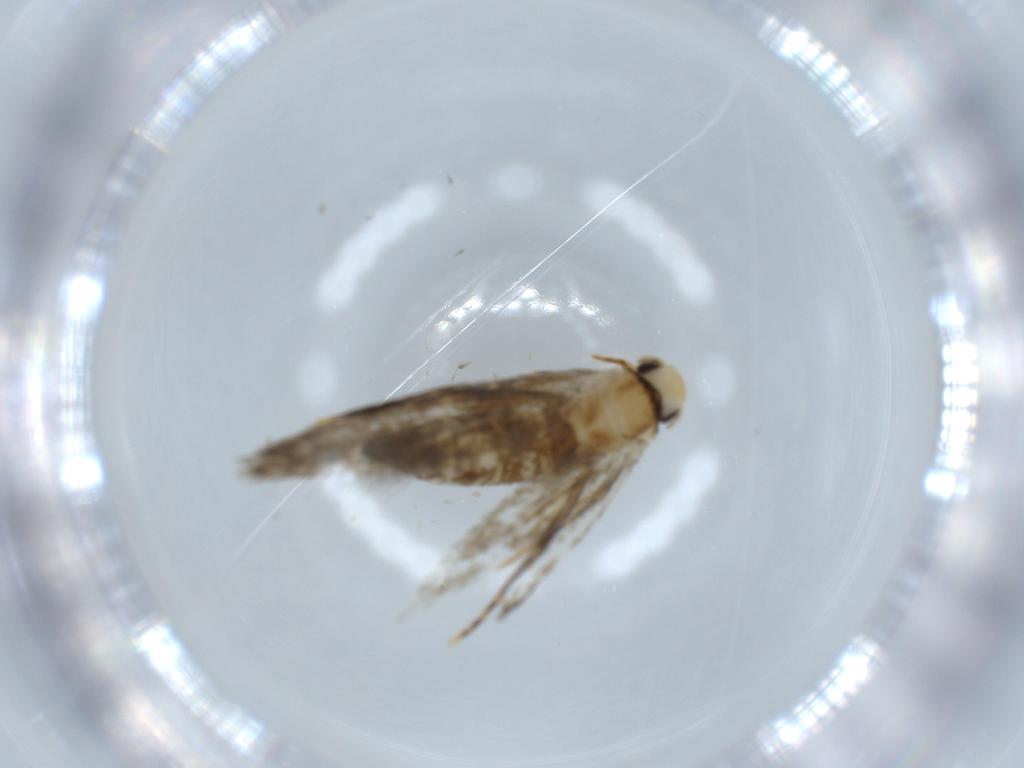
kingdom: Animalia
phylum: Arthropoda
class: Insecta
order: Lepidoptera
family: Tineidae
